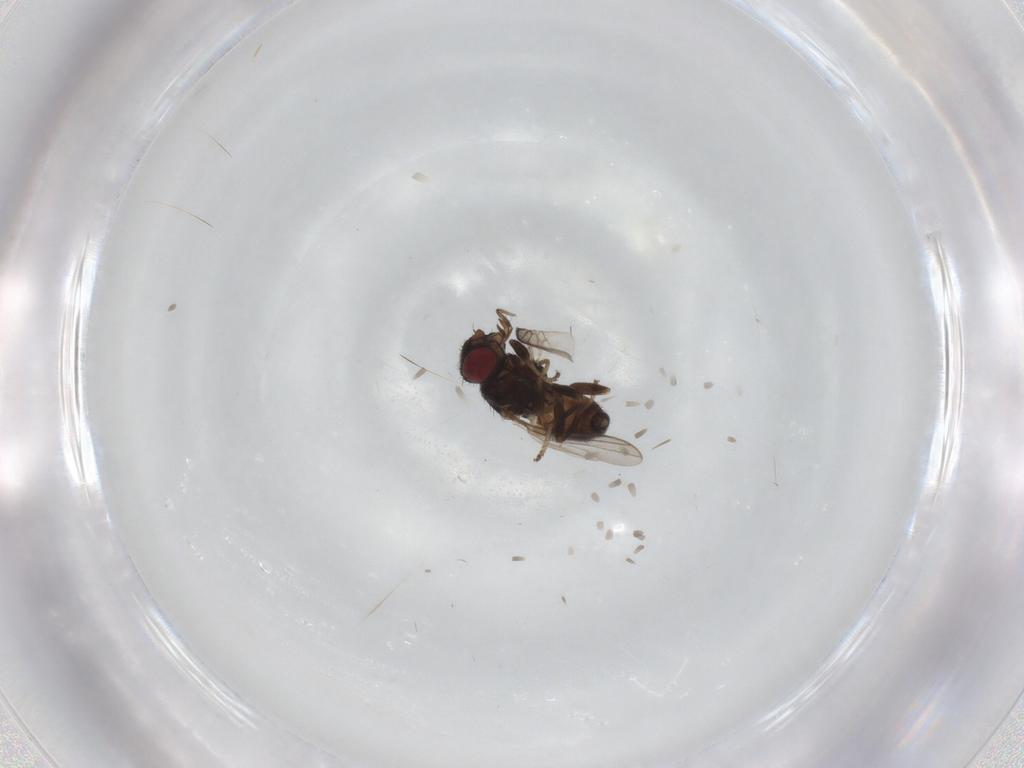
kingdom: Animalia
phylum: Arthropoda
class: Insecta
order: Diptera
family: Chloropidae
